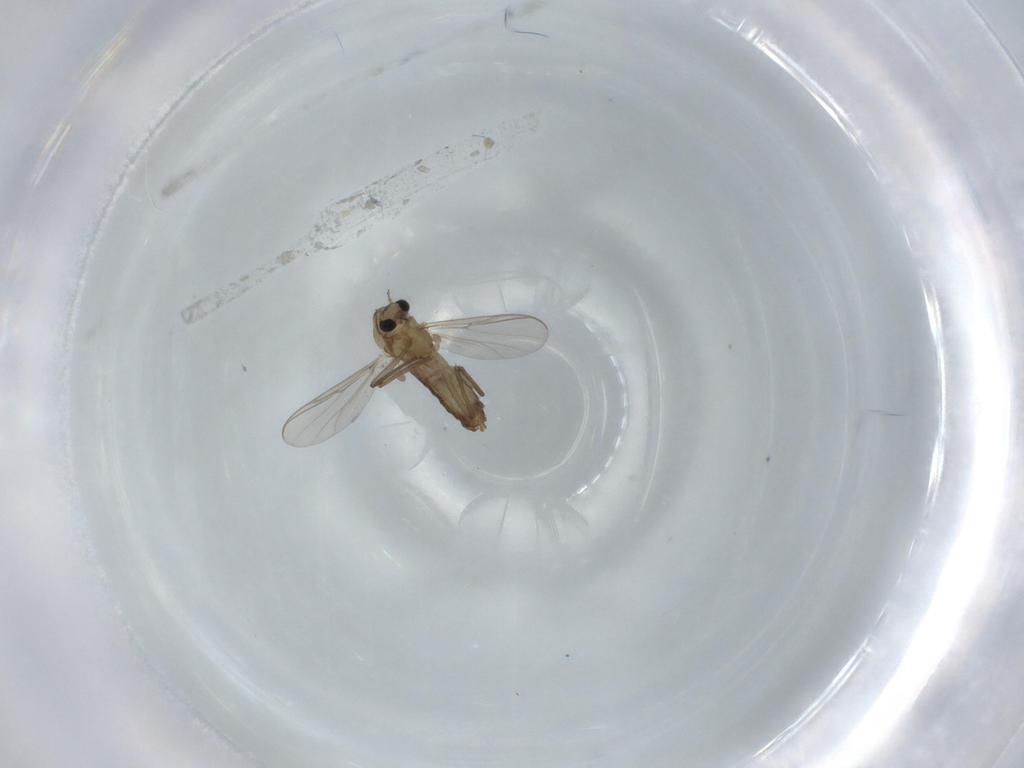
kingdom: Animalia
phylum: Arthropoda
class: Insecta
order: Diptera
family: Chironomidae
